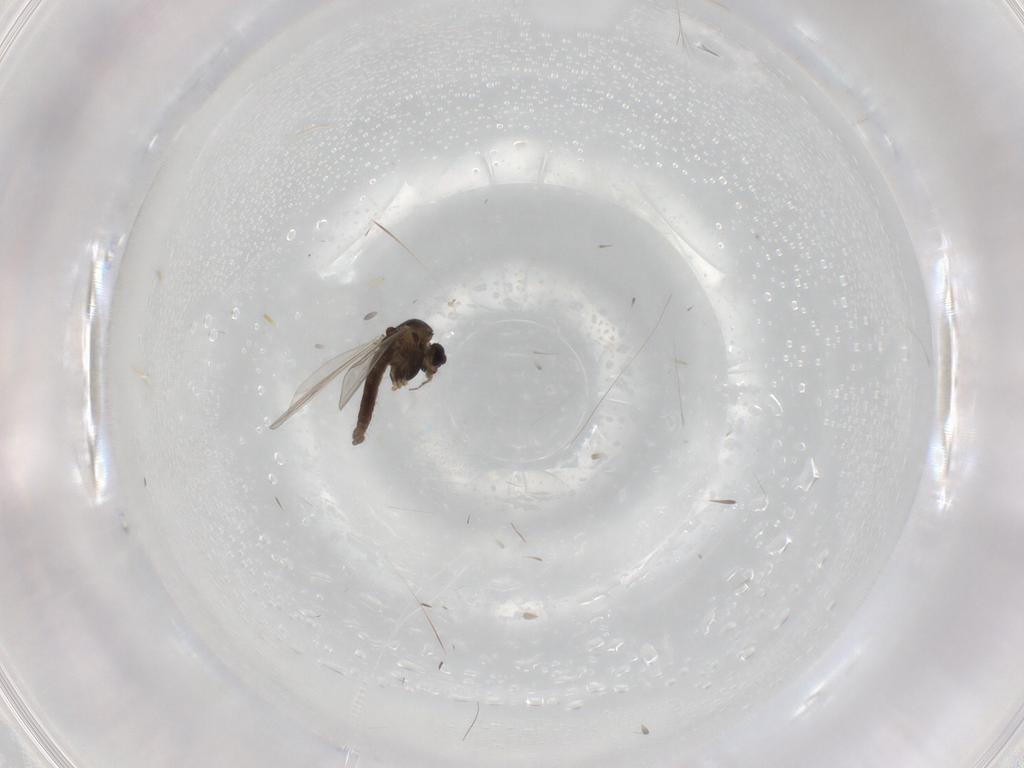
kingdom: Animalia
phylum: Arthropoda
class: Insecta
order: Diptera
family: Chironomidae
